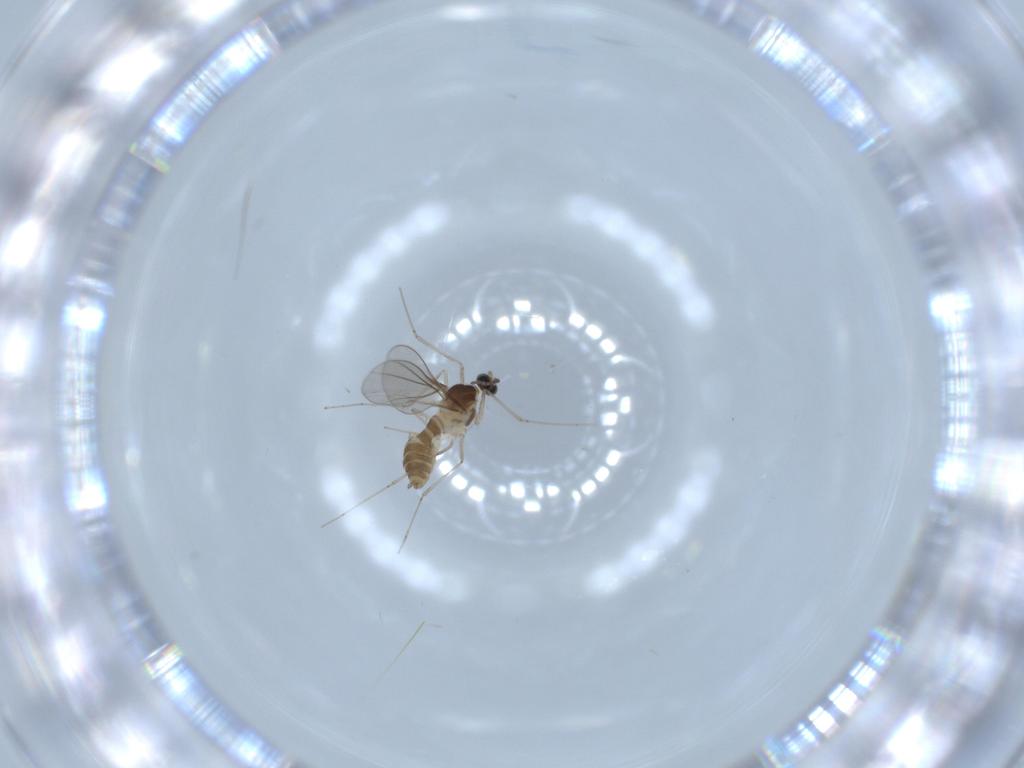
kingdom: Animalia
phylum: Arthropoda
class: Insecta
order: Diptera
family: Cecidomyiidae
